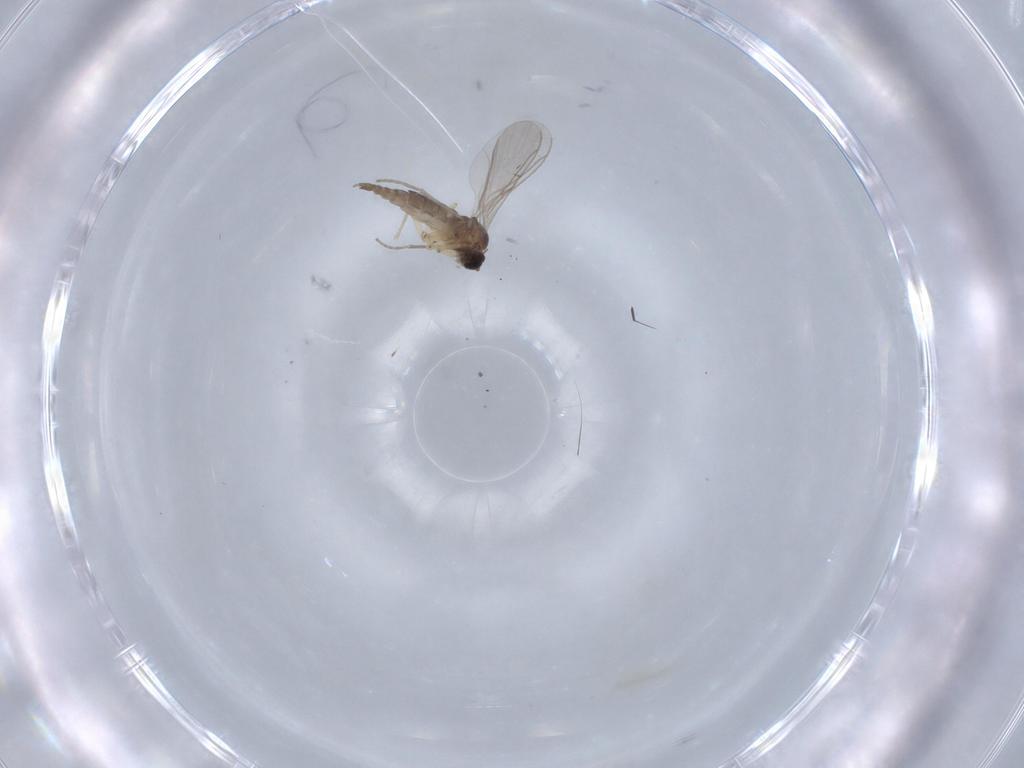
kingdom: Animalia
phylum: Arthropoda
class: Insecta
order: Diptera
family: Sciaridae
